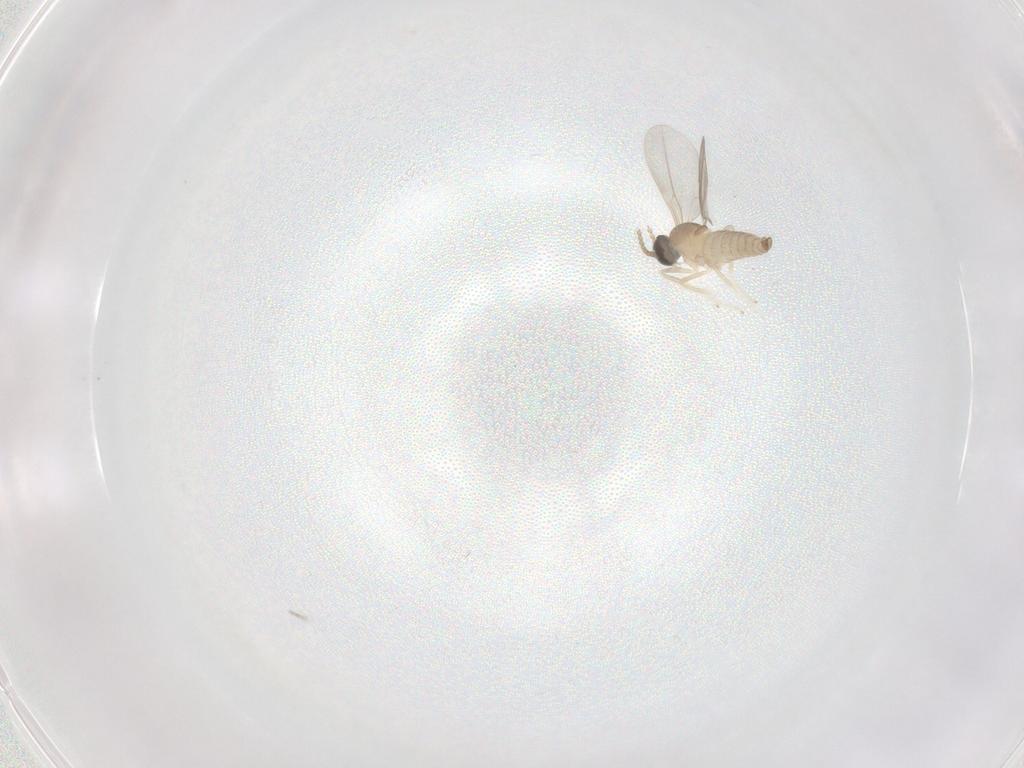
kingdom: Animalia
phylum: Arthropoda
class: Insecta
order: Diptera
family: Cecidomyiidae
